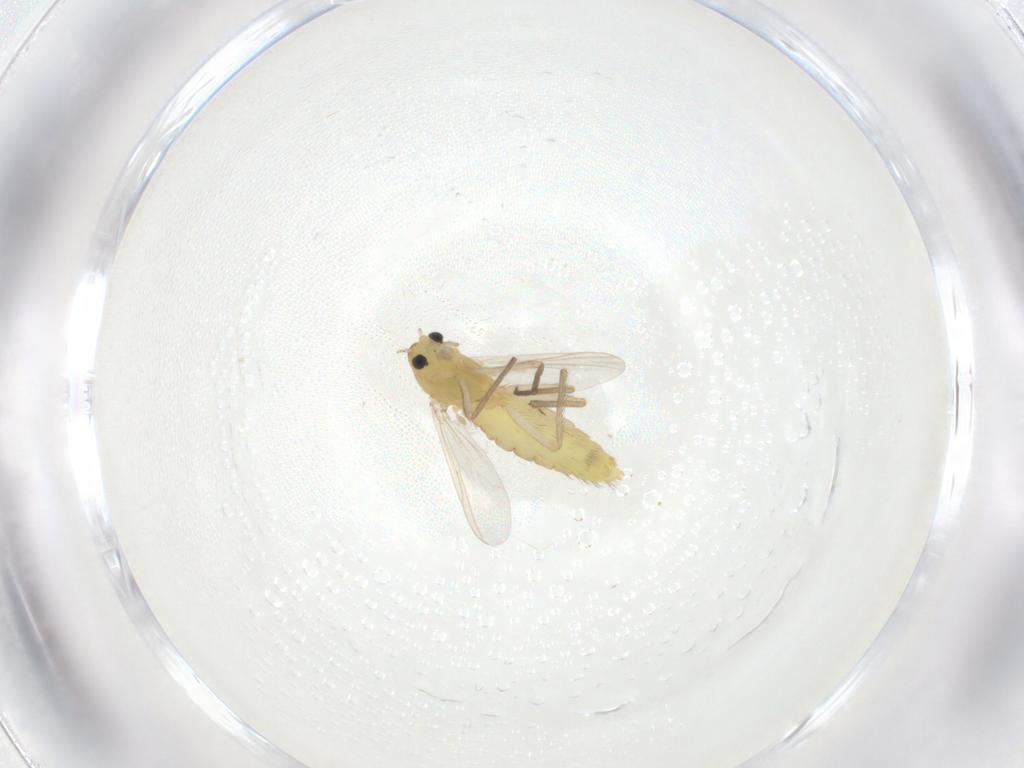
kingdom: Animalia
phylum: Arthropoda
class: Insecta
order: Diptera
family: Chironomidae
